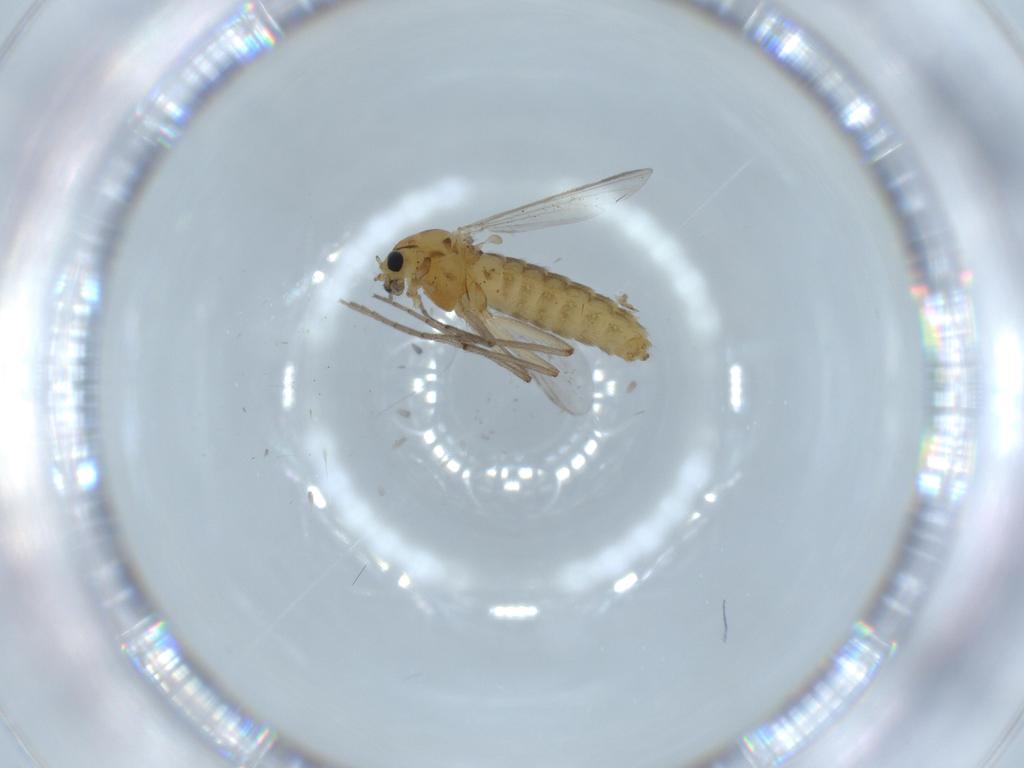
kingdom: Animalia
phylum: Arthropoda
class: Insecta
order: Diptera
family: Chironomidae
